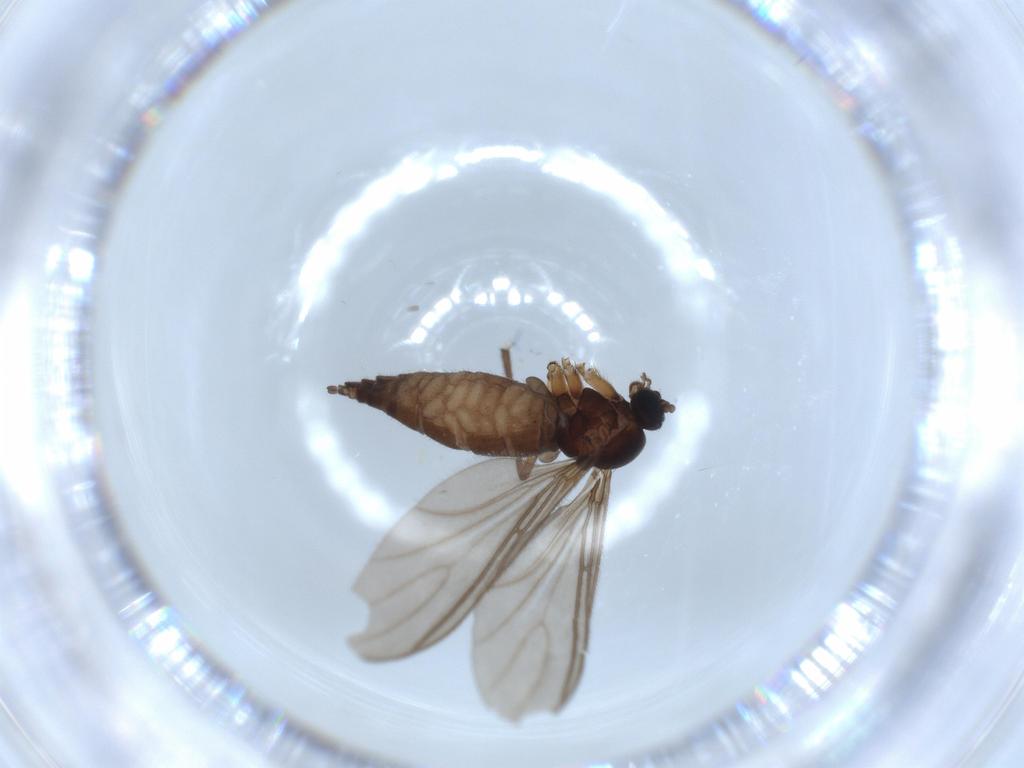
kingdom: Animalia
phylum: Arthropoda
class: Insecta
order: Diptera
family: Sciaridae
